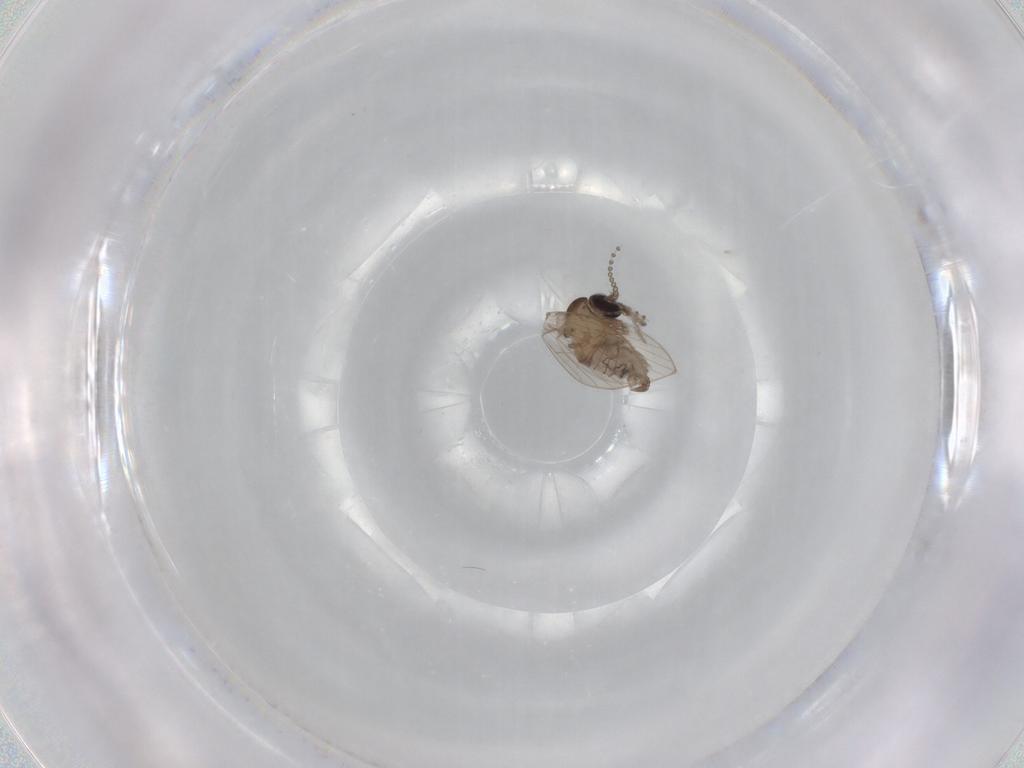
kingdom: Animalia
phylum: Arthropoda
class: Insecta
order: Diptera
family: Psychodidae
